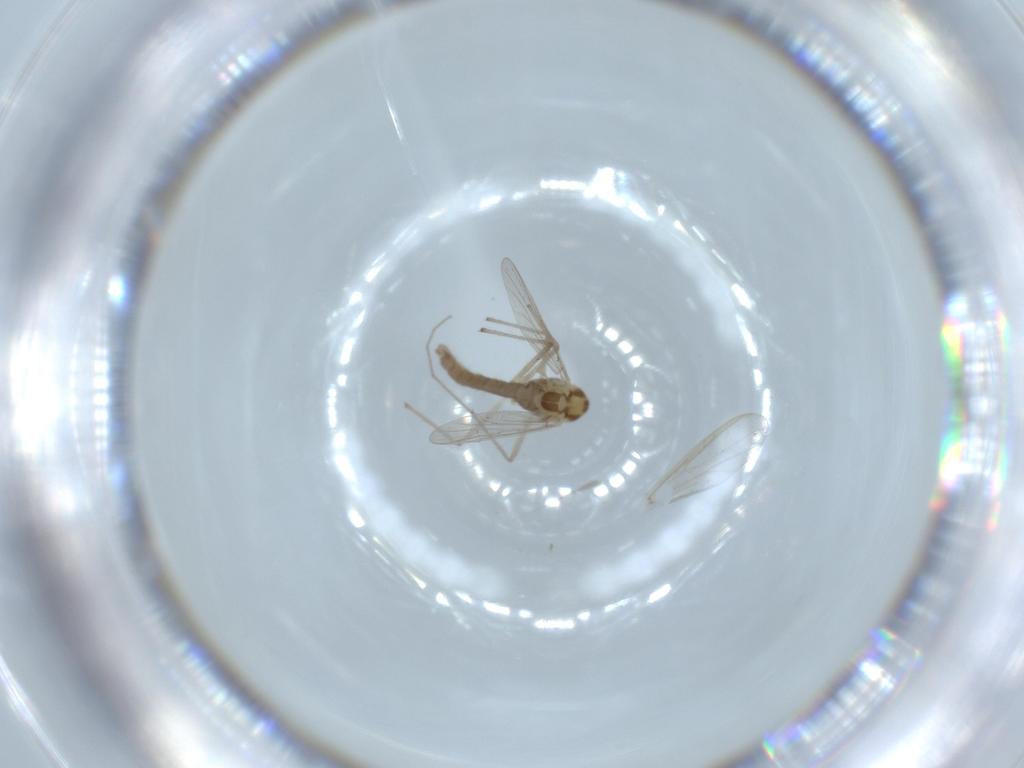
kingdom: Animalia
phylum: Arthropoda
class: Insecta
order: Diptera
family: Chironomidae
